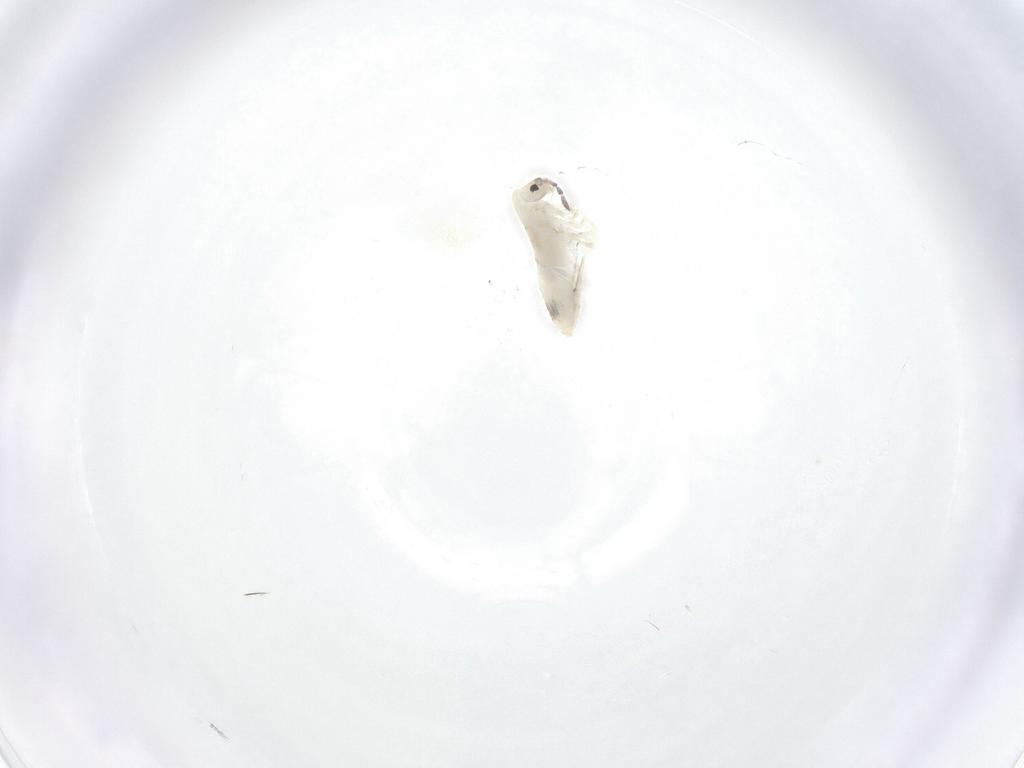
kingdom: Animalia
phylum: Arthropoda
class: Collembola
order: Entomobryomorpha
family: Entomobryidae
